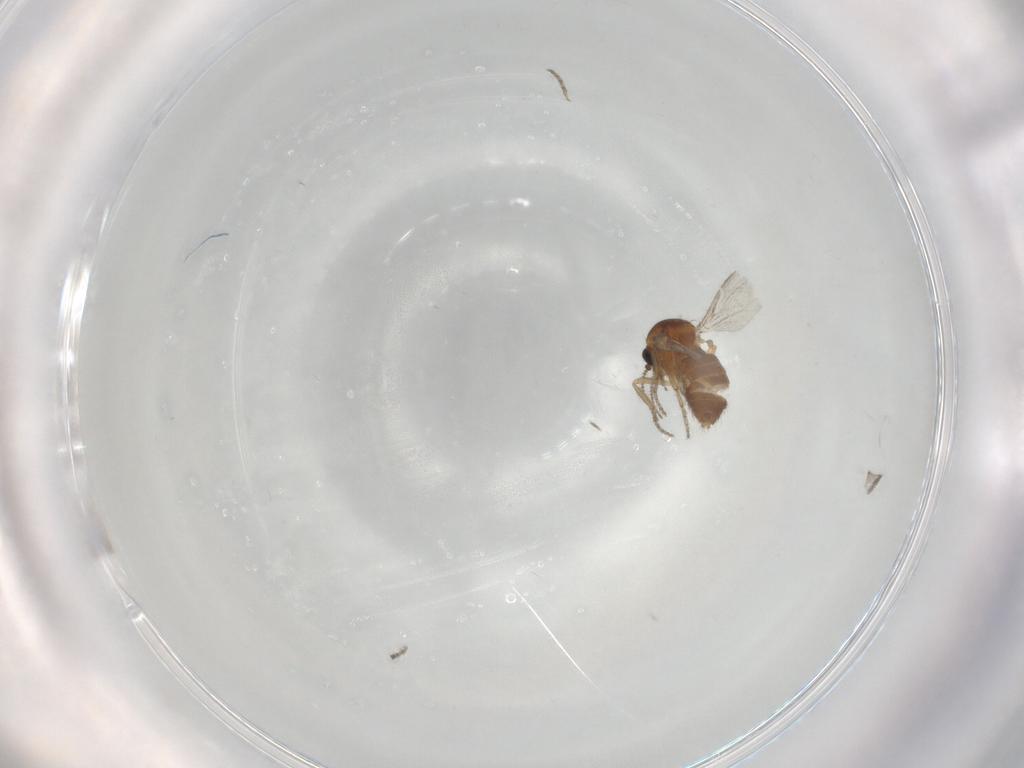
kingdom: Animalia
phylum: Arthropoda
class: Insecta
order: Diptera
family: Ceratopogonidae
